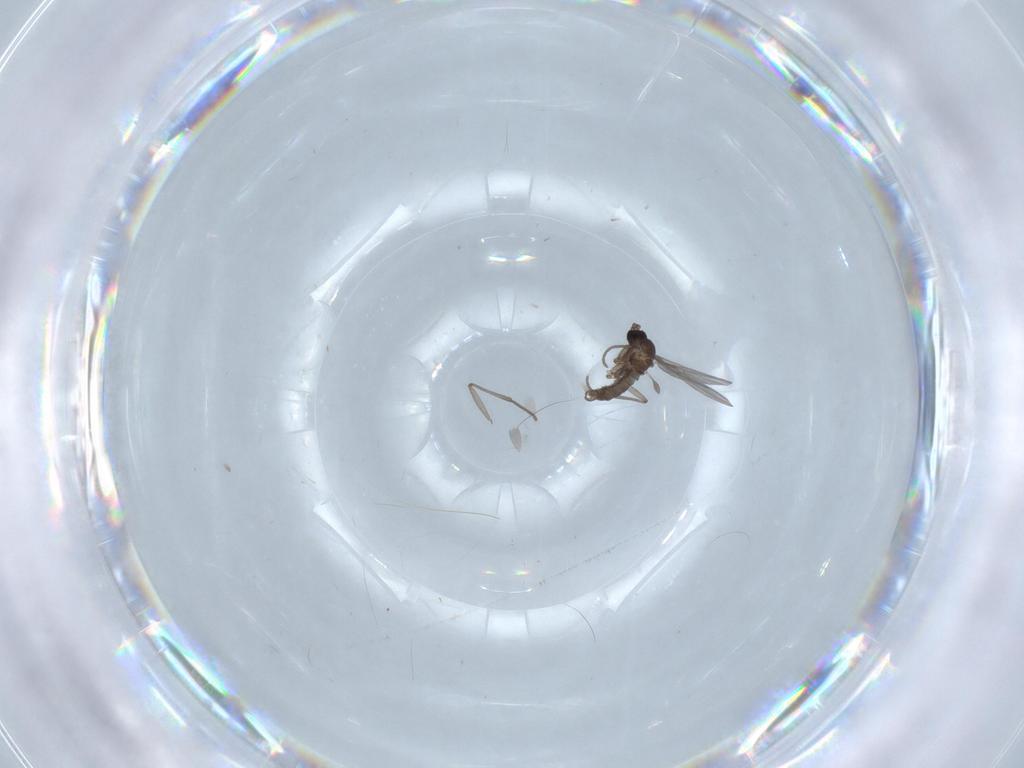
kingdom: Animalia
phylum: Arthropoda
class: Insecta
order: Diptera
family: Sciaridae
